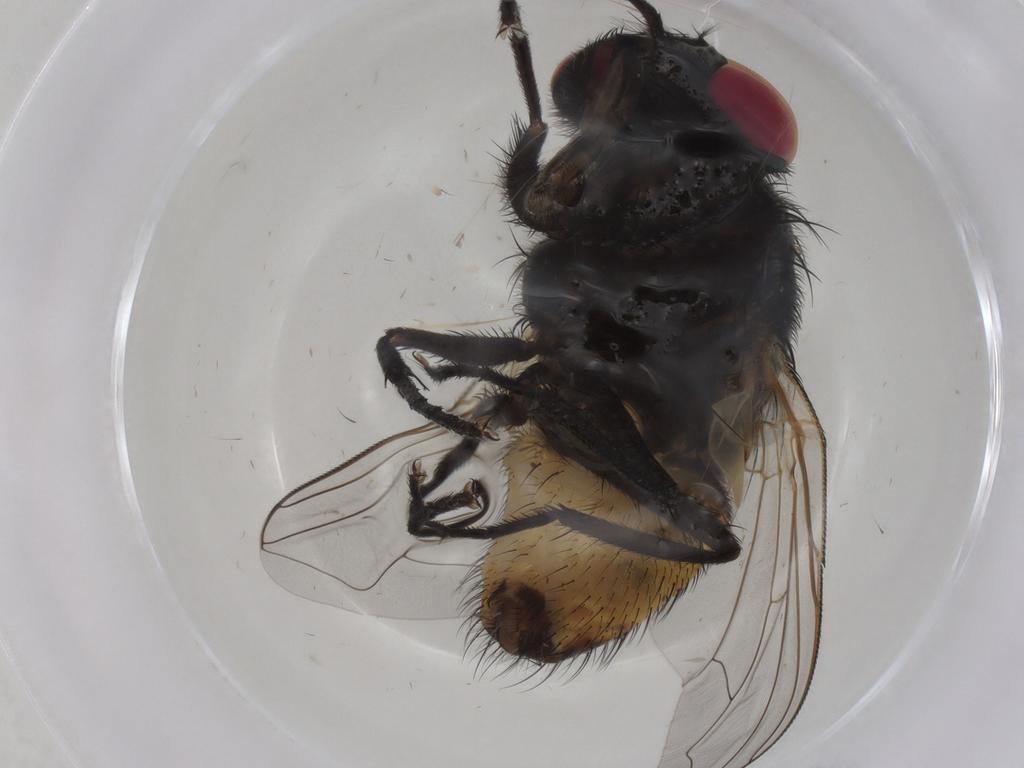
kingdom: Animalia
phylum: Arthropoda
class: Insecta
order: Diptera
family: Muscidae
